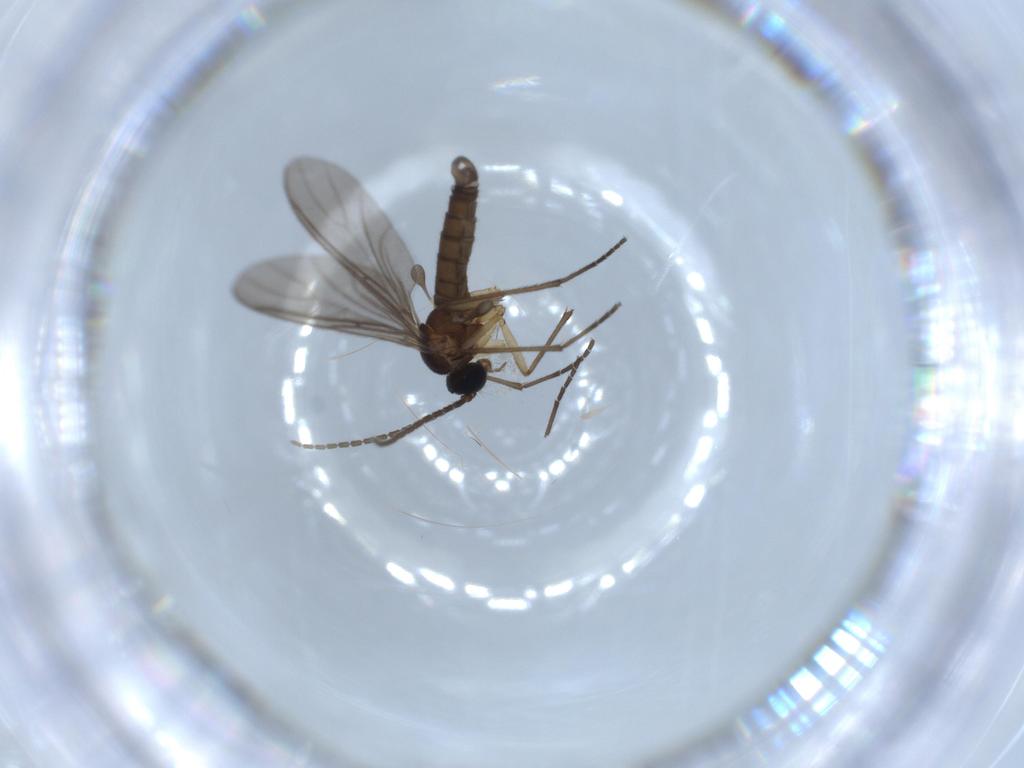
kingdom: Animalia
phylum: Arthropoda
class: Insecta
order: Diptera
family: Sciaridae
